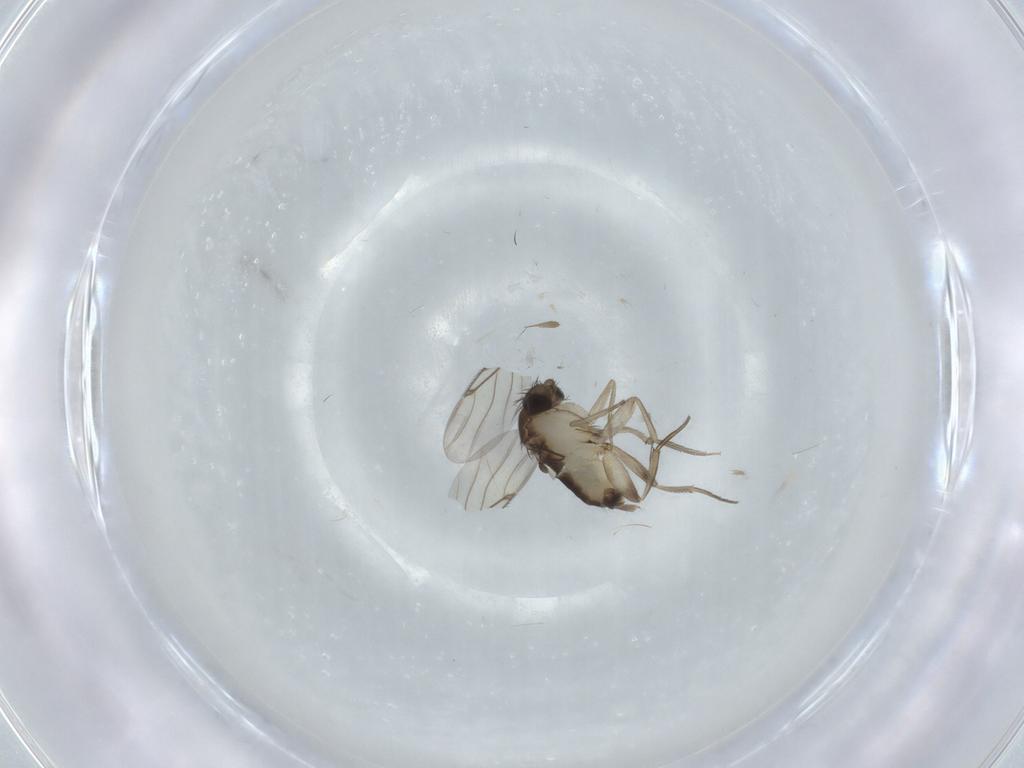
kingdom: Animalia
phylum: Arthropoda
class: Insecta
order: Diptera
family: Phoridae
